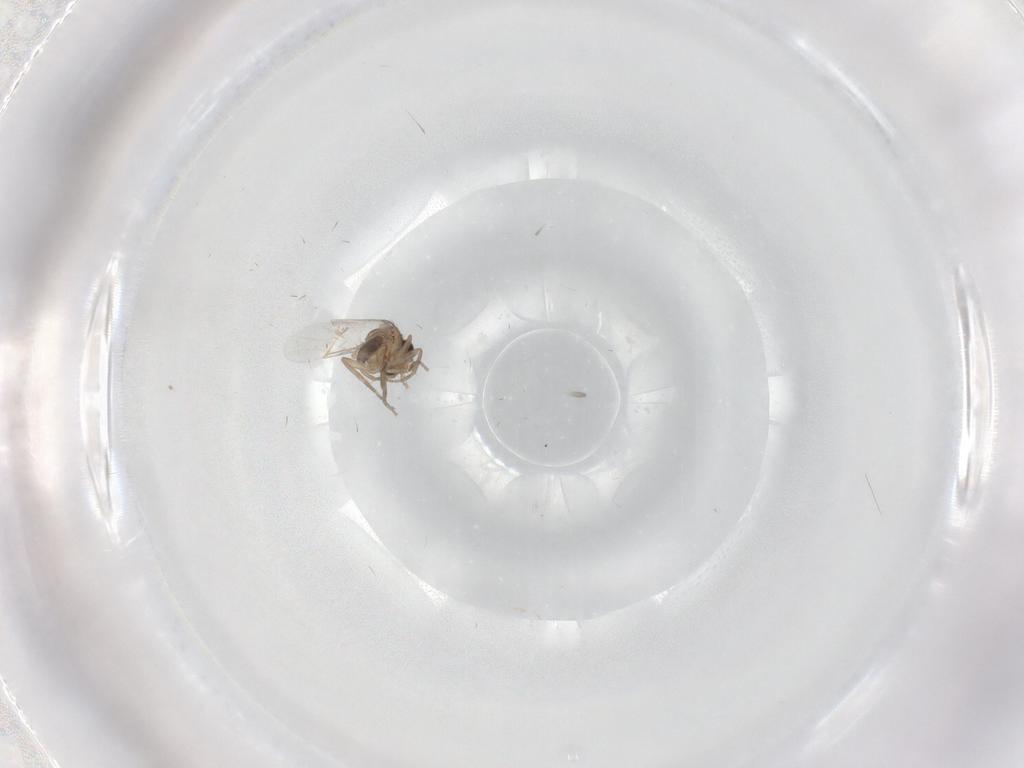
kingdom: Animalia
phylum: Arthropoda
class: Insecta
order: Diptera
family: Phoridae
